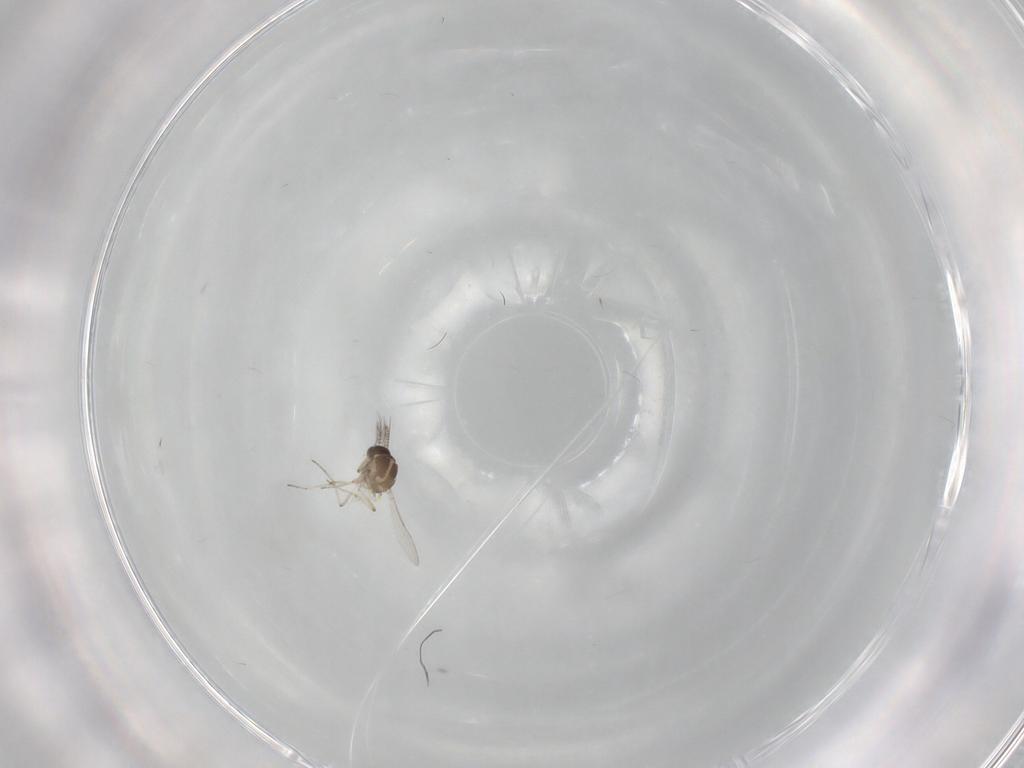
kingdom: Animalia
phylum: Arthropoda
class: Insecta
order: Diptera
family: Ceratopogonidae
